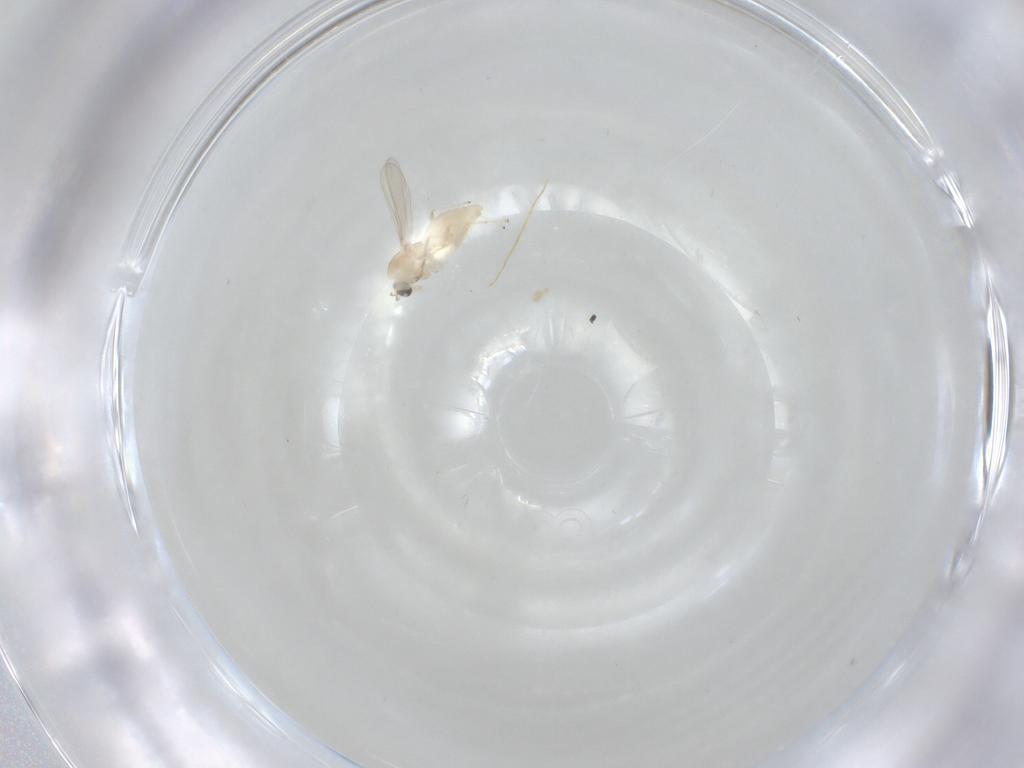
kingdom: Animalia
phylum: Arthropoda
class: Insecta
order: Diptera
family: Chironomidae
